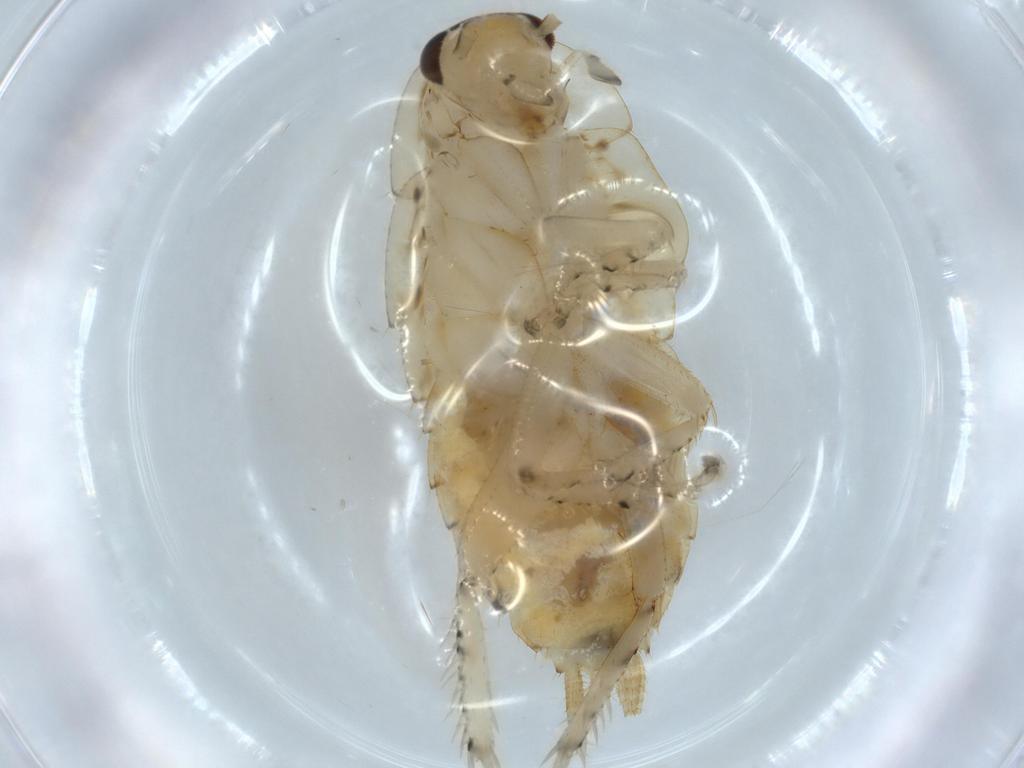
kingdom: Animalia
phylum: Arthropoda
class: Insecta
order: Blattodea
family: Ectobiidae
